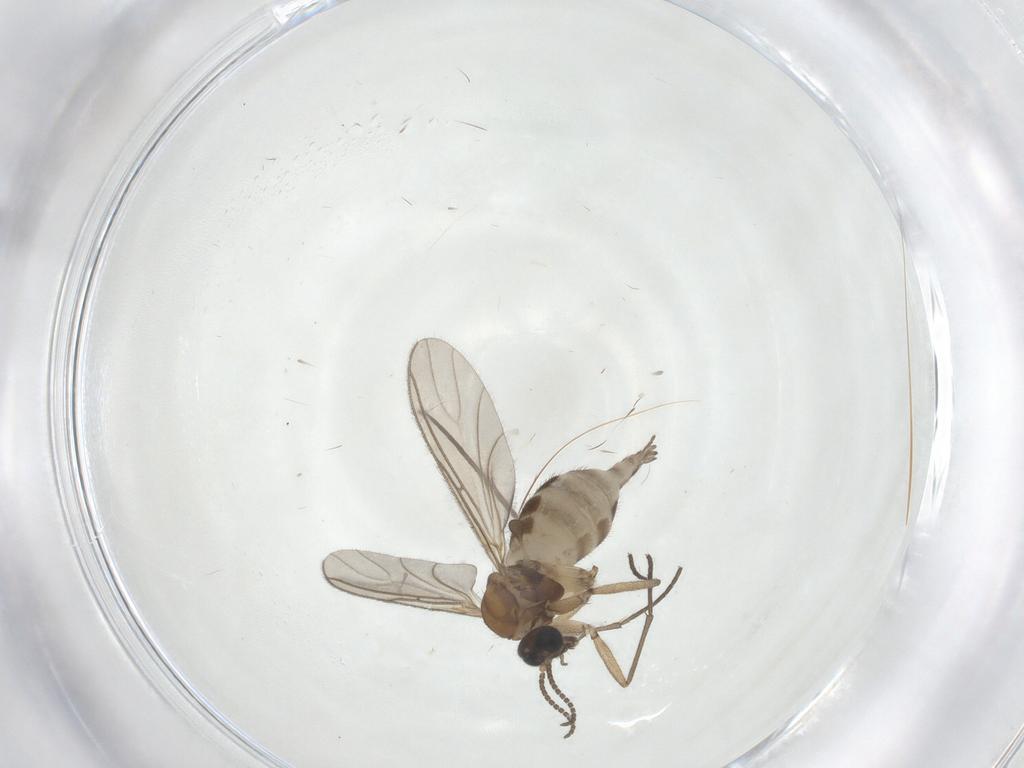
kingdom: Animalia
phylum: Arthropoda
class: Insecta
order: Diptera
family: Sciaridae
